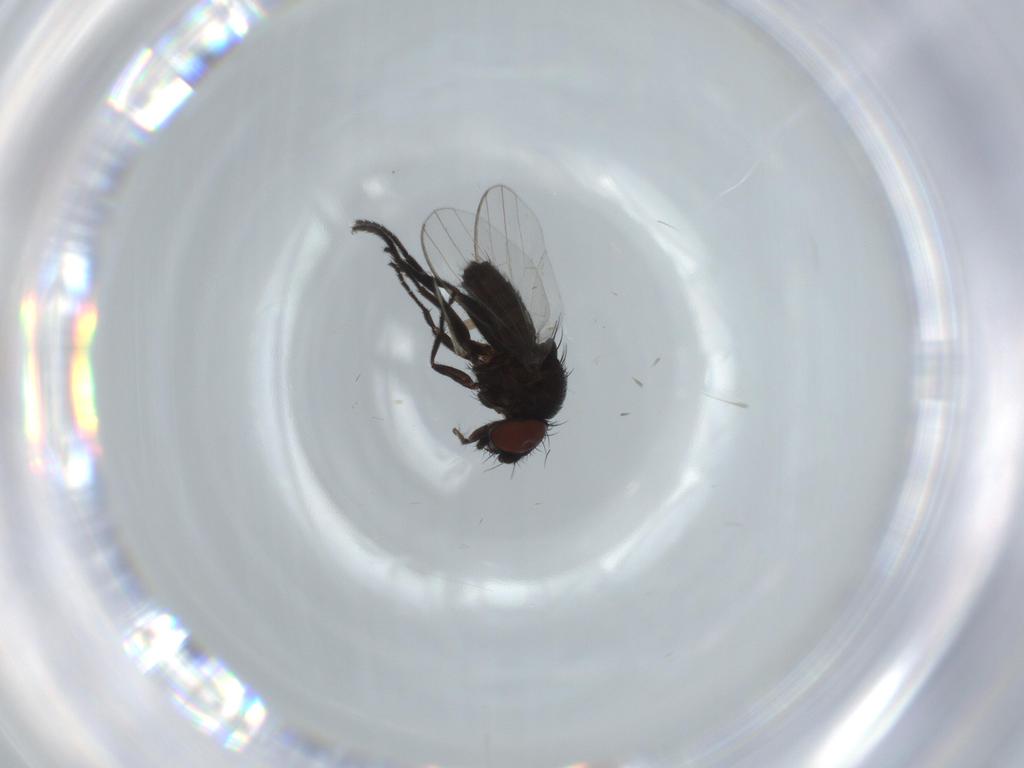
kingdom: Animalia
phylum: Arthropoda
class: Insecta
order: Diptera
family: Milichiidae
